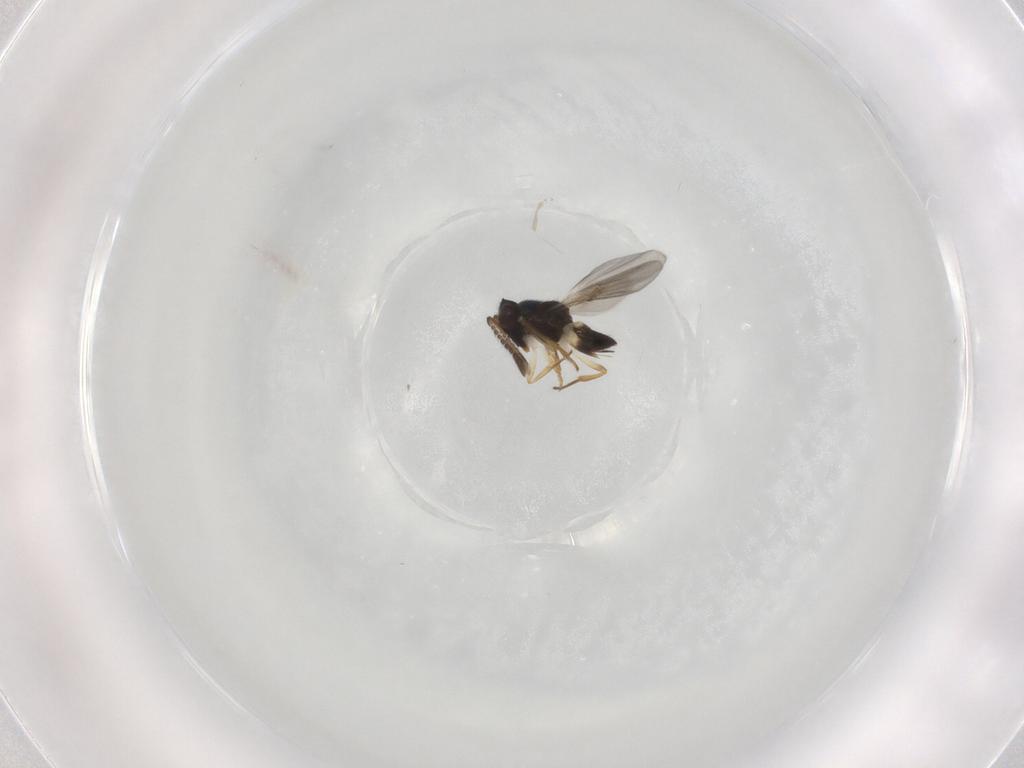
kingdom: Animalia
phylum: Arthropoda
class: Insecta
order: Hymenoptera
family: Encyrtidae
